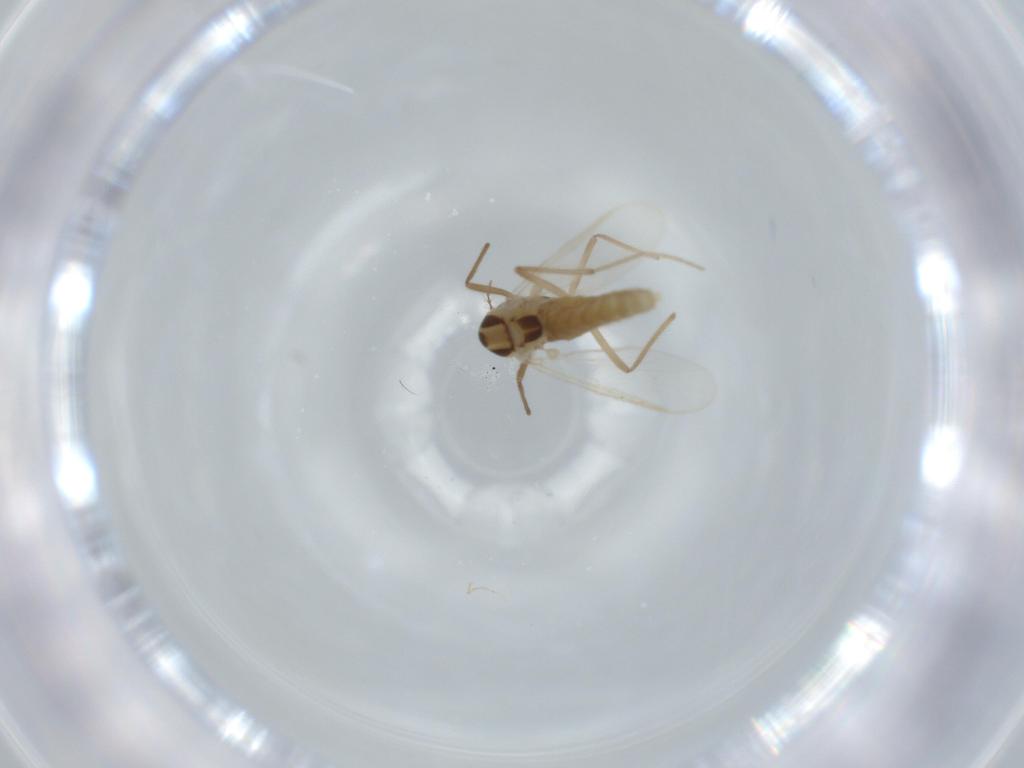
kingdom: Animalia
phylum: Arthropoda
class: Insecta
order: Diptera
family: Chironomidae
